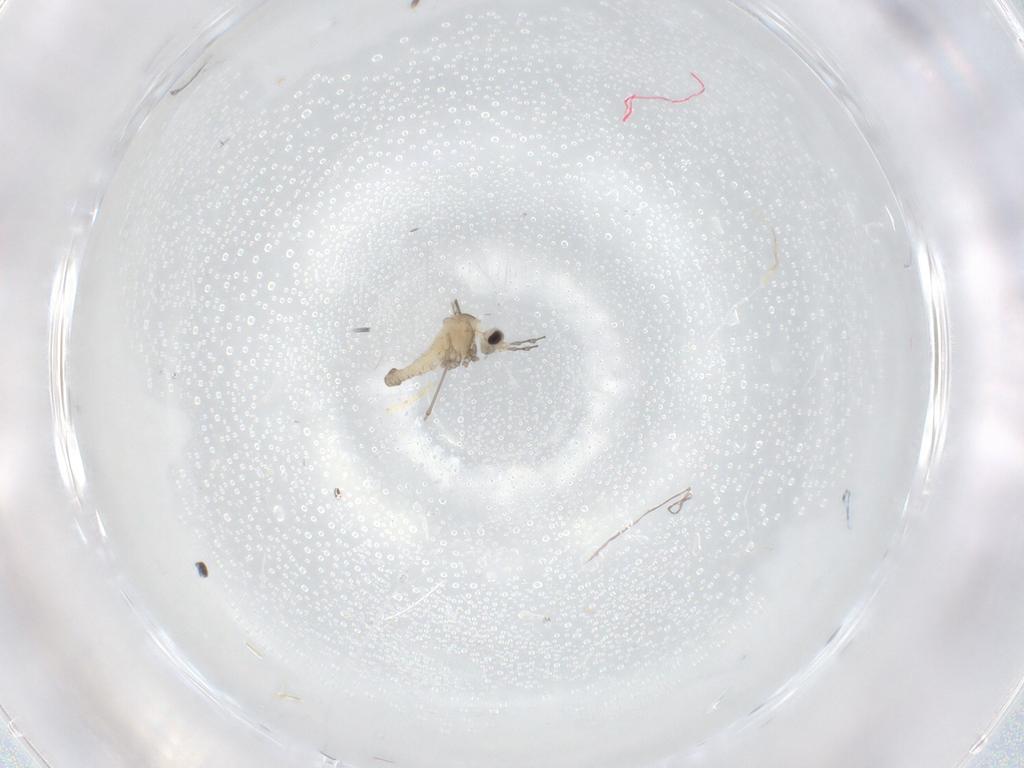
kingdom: Animalia
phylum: Arthropoda
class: Insecta
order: Diptera
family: Cecidomyiidae
